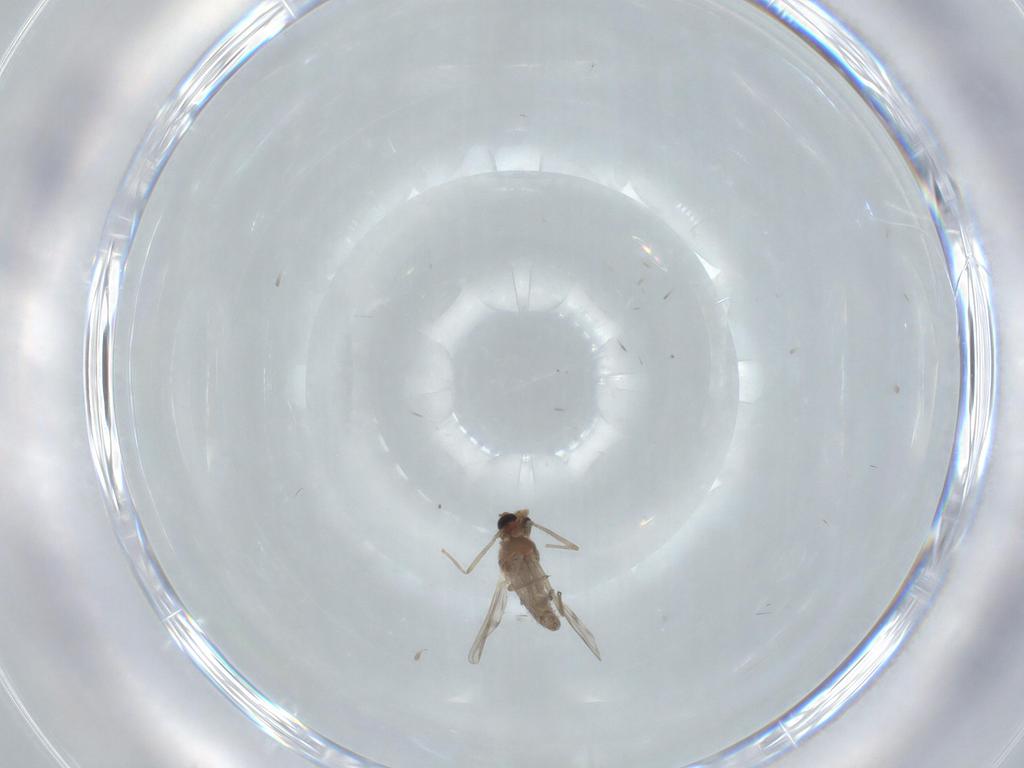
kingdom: Animalia
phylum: Arthropoda
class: Insecta
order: Diptera
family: Chironomidae
